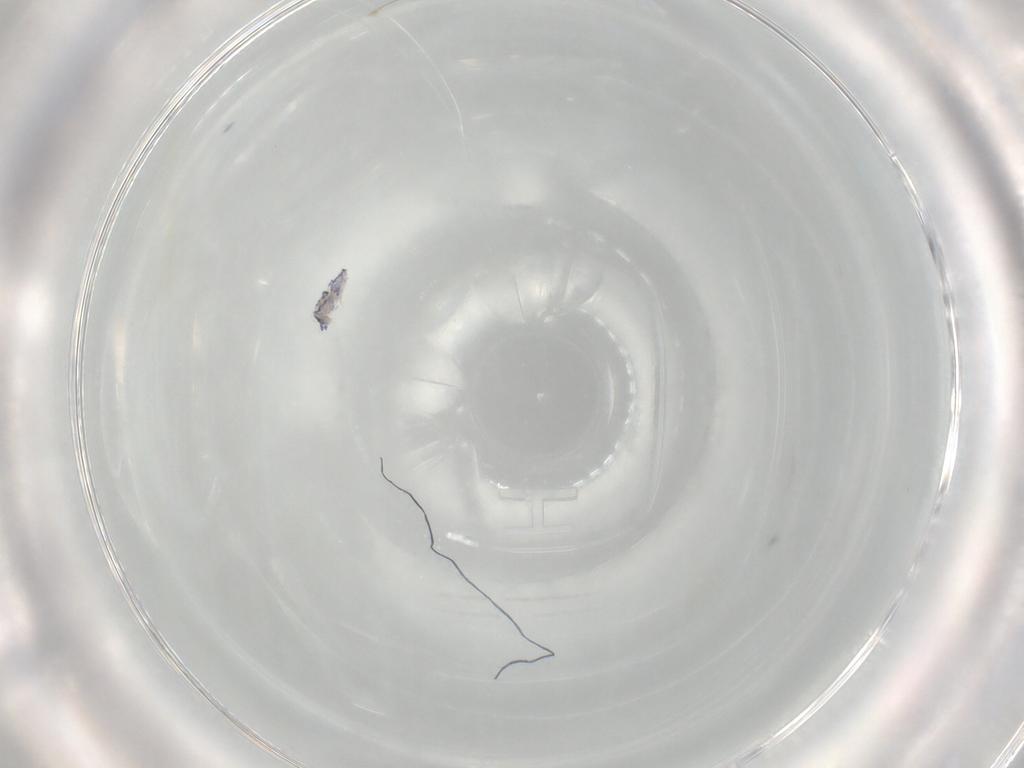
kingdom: Animalia
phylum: Arthropoda
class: Collembola
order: Entomobryomorpha
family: Entomobryidae
